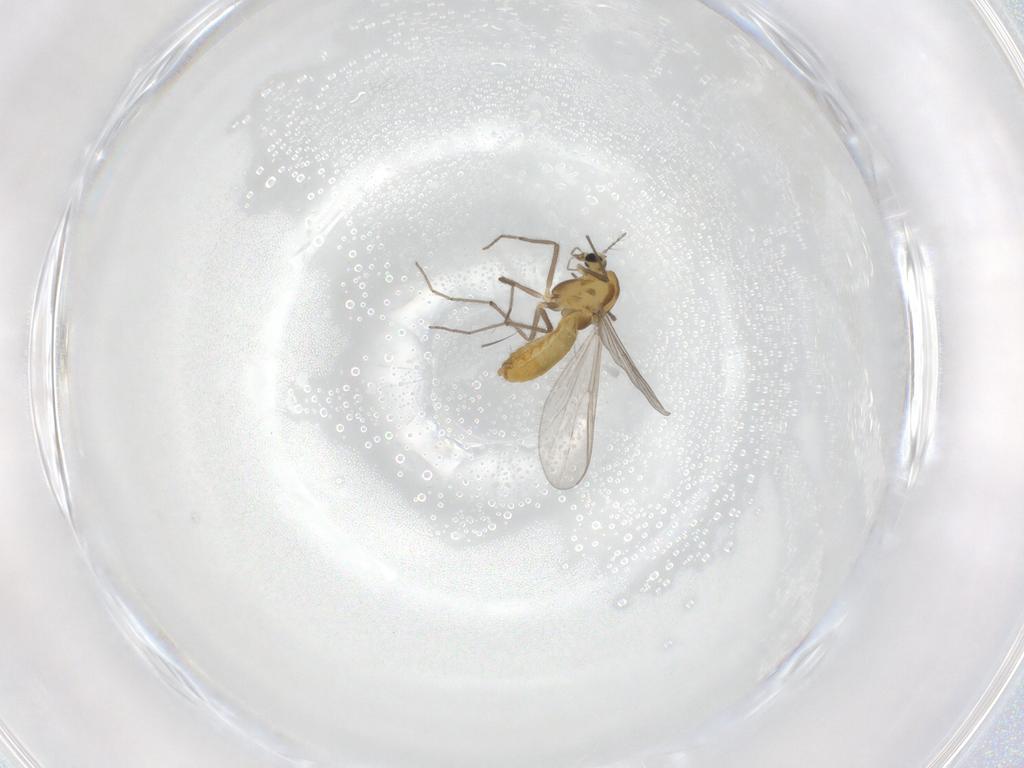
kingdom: Animalia
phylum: Arthropoda
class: Insecta
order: Diptera
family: Chironomidae
